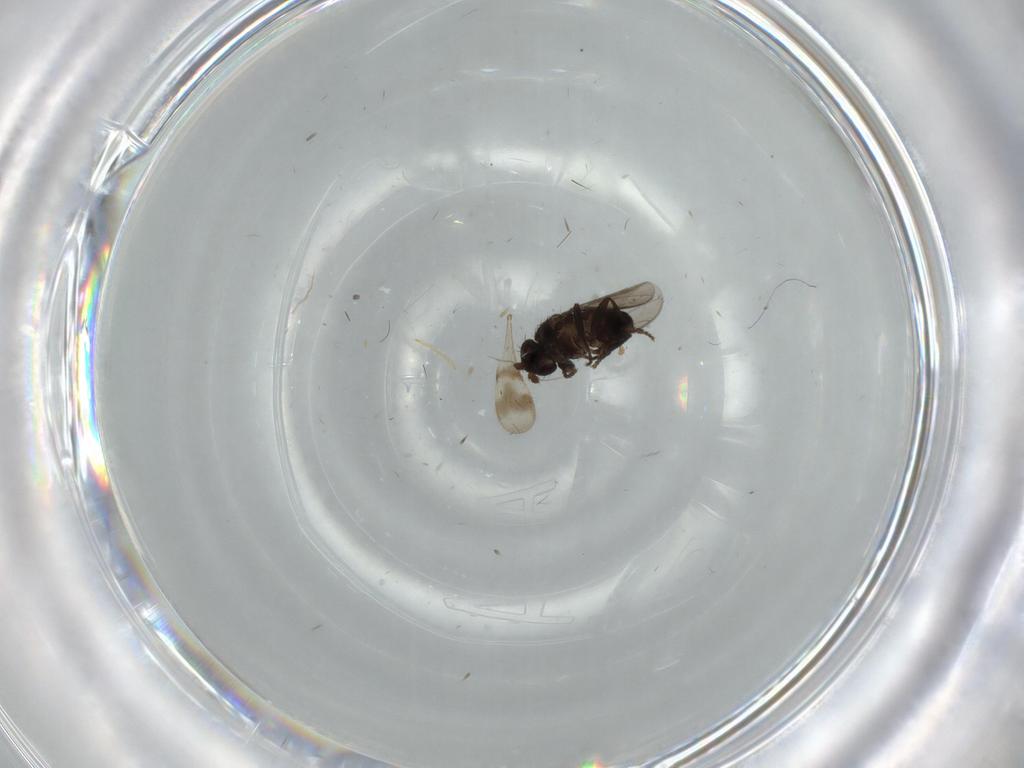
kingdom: Animalia
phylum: Arthropoda
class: Insecta
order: Diptera
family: Sphaeroceridae
